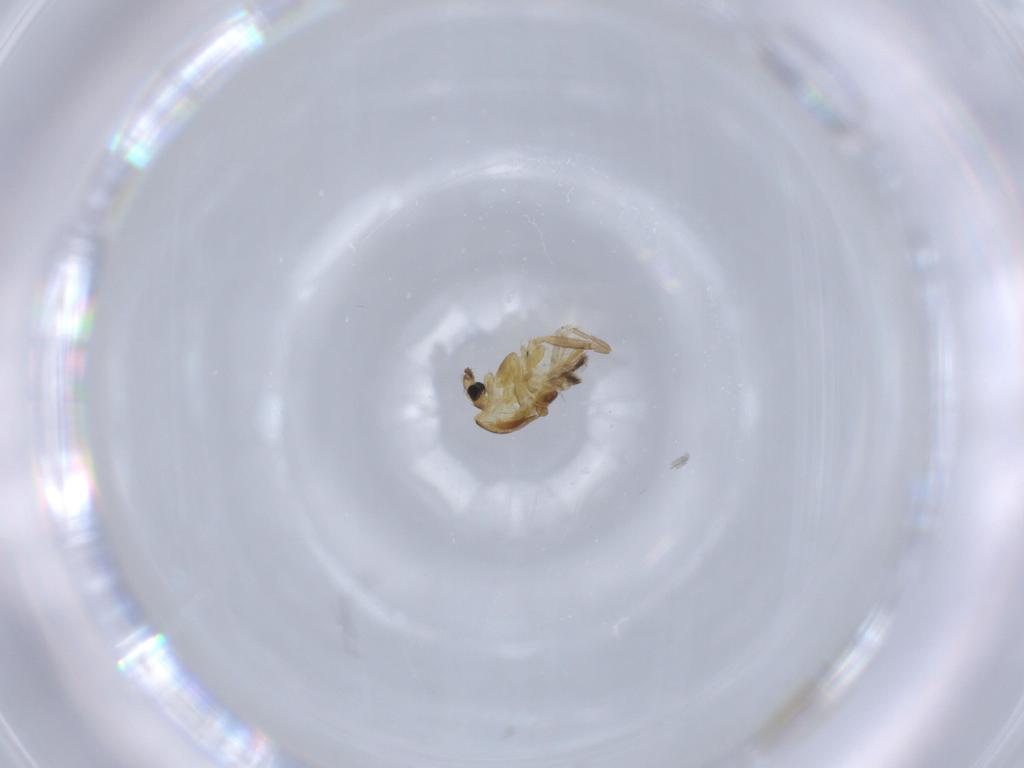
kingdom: Animalia
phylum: Arthropoda
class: Insecta
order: Diptera
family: Chironomidae
